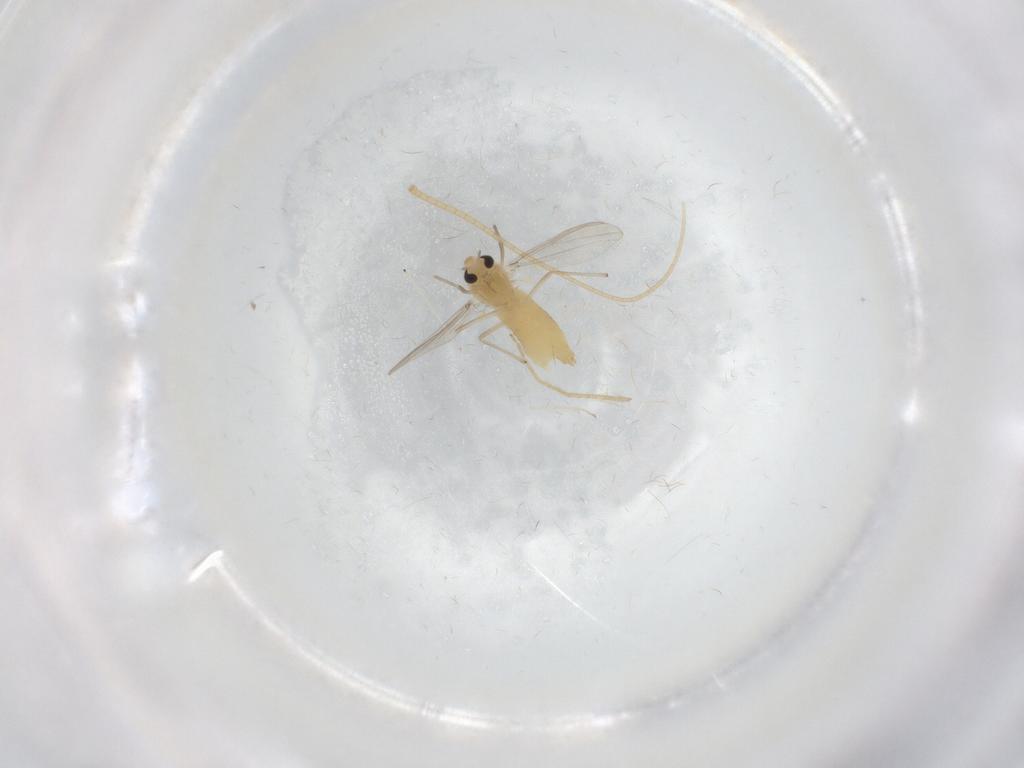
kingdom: Animalia
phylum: Arthropoda
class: Insecta
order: Diptera
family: Chironomidae
